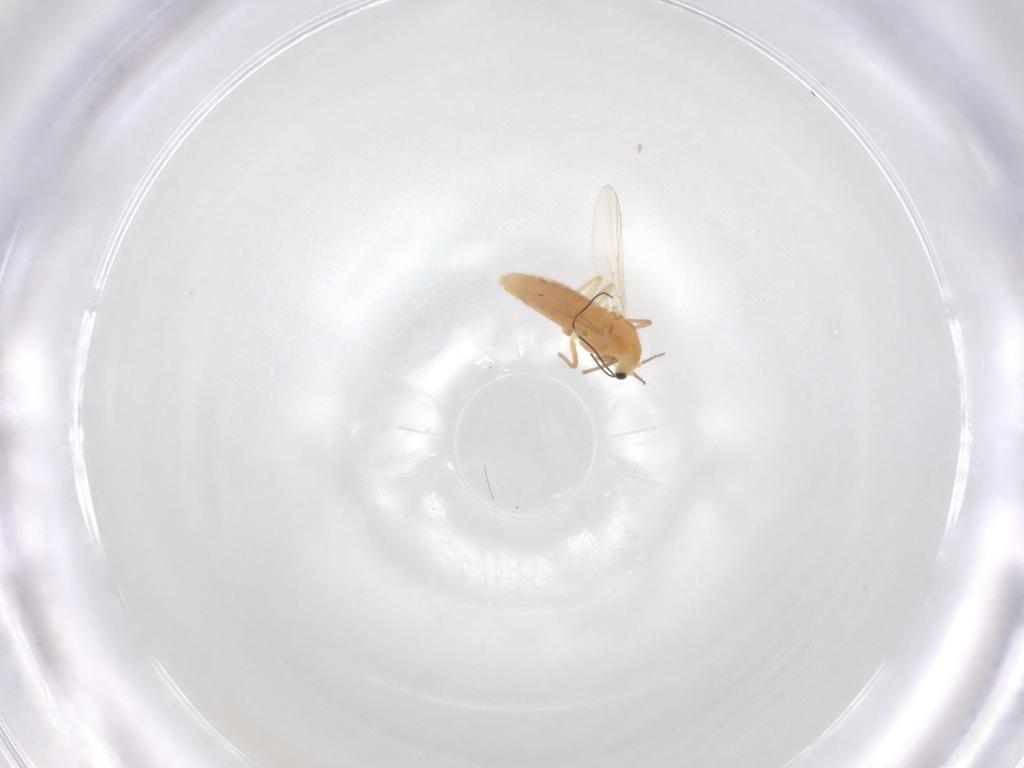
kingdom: Animalia
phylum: Arthropoda
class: Insecta
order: Diptera
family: Chironomidae
